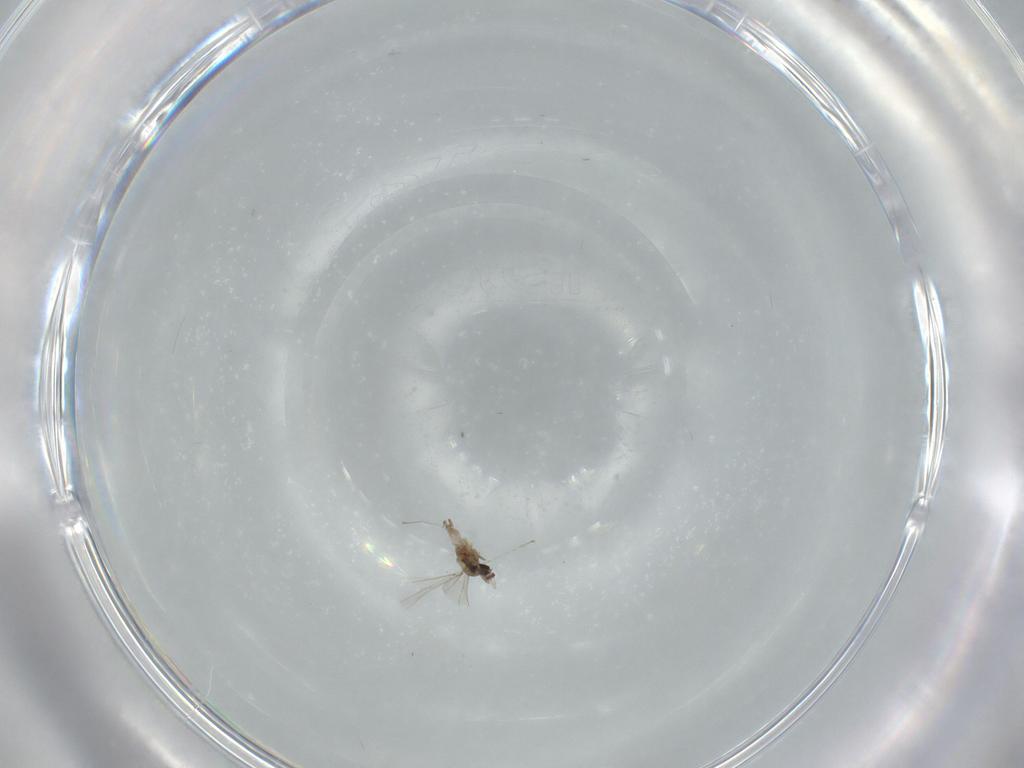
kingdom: Animalia
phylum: Arthropoda
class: Insecta
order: Diptera
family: Cecidomyiidae
